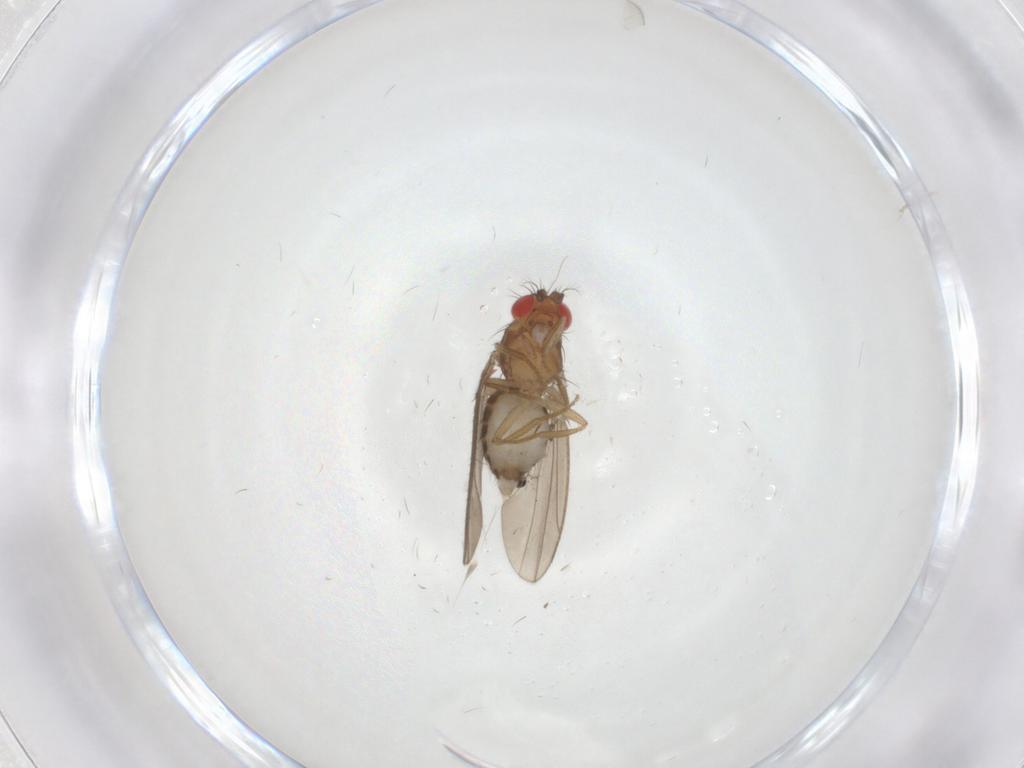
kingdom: Animalia
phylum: Arthropoda
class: Insecta
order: Diptera
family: Drosophilidae
